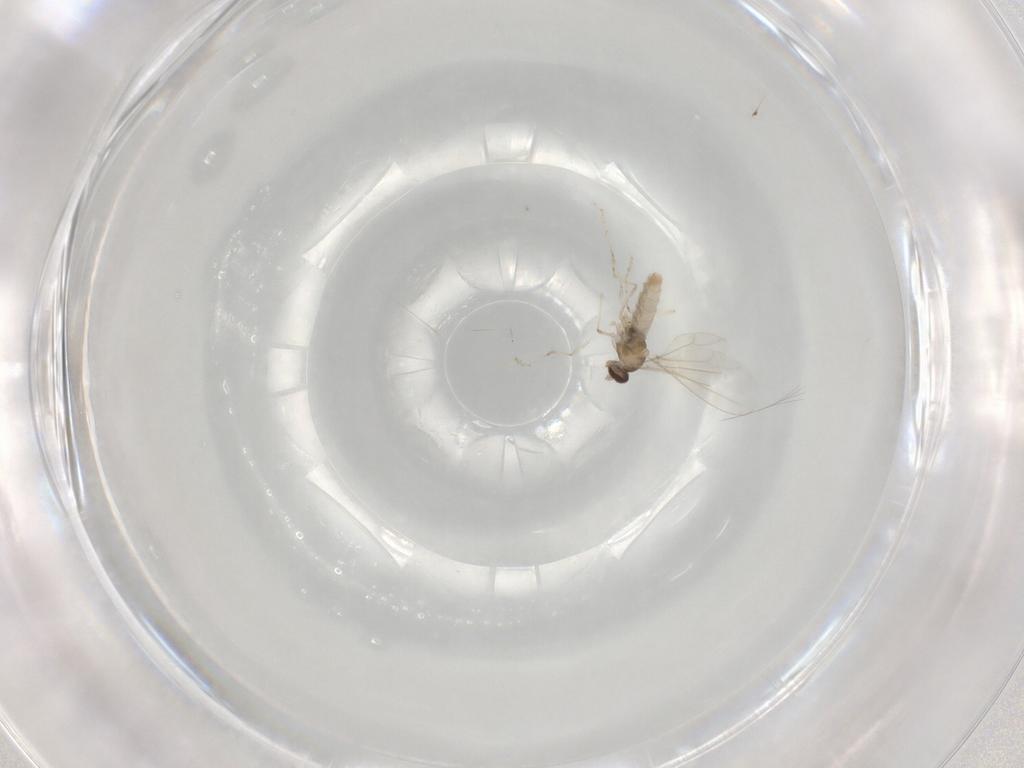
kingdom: Animalia
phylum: Arthropoda
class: Insecta
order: Diptera
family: Cecidomyiidae
